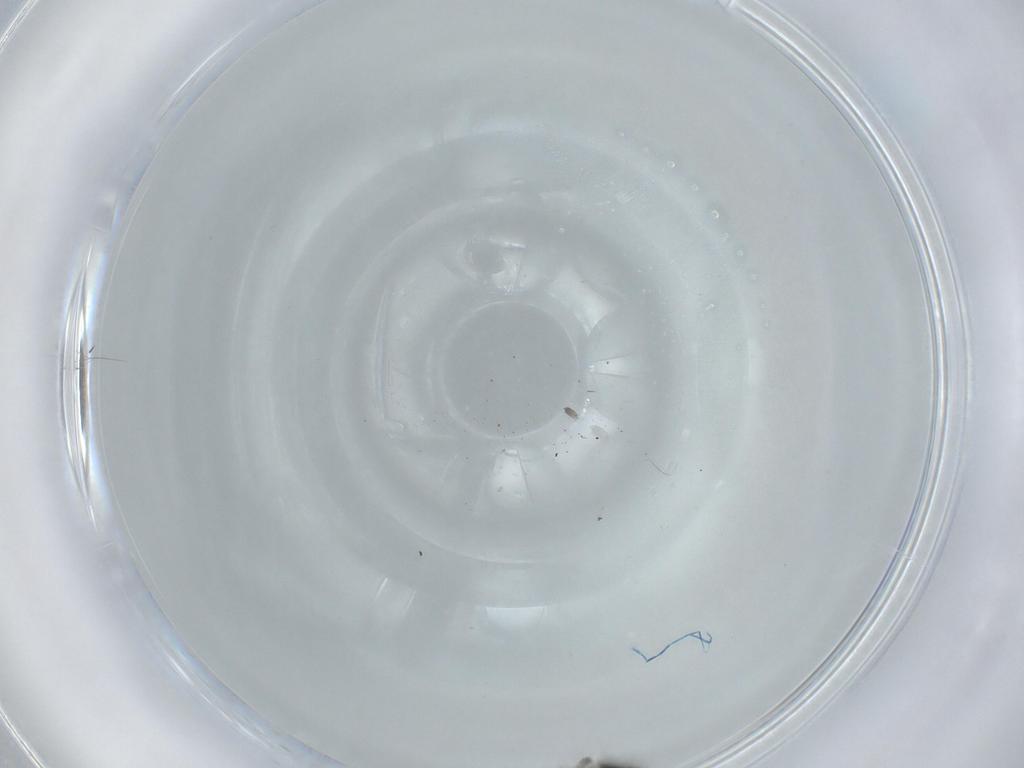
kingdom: Animalia
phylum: Arthropoda
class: Insecta
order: Diptera
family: Phoridae
